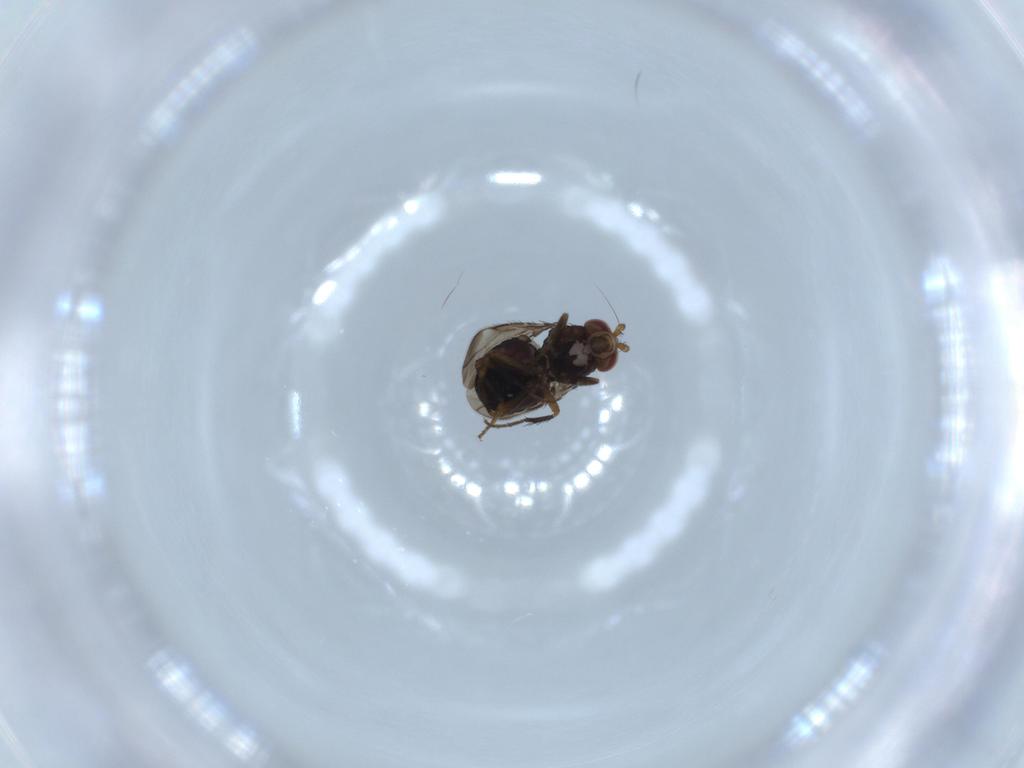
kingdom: Animalia
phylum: Arthropoda
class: Insecta
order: Diptera
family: Sphaeroceridae
